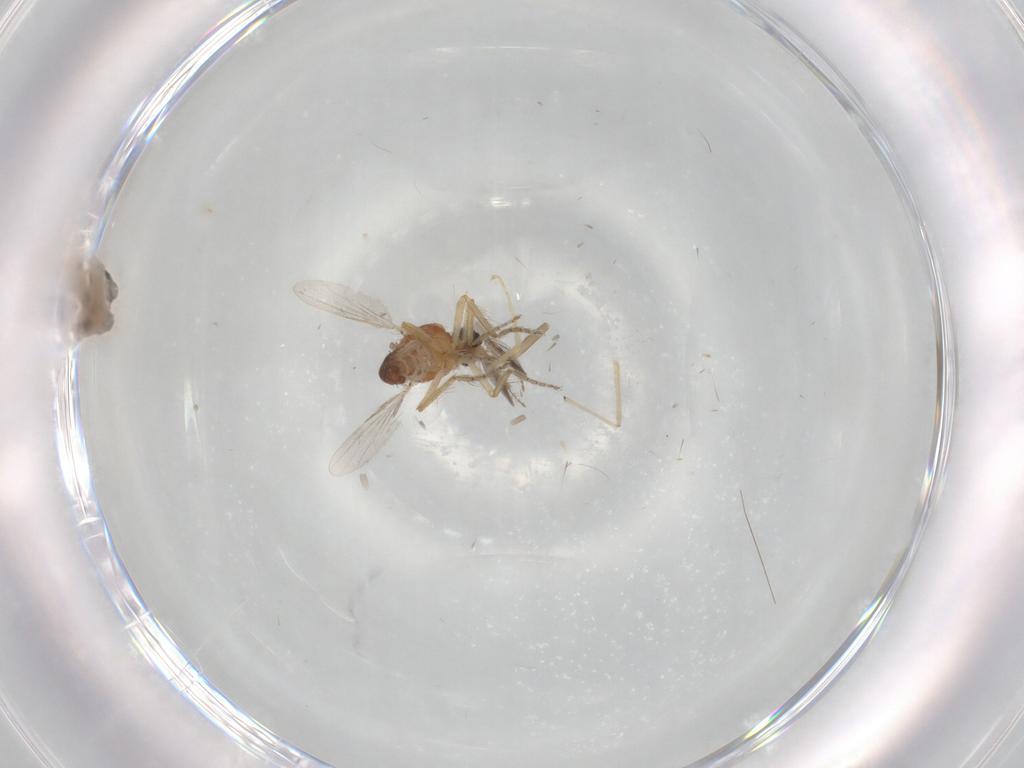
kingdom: Animalia
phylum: Arthropoda
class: Insecta
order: Diptera
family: Ceratopogonidae
